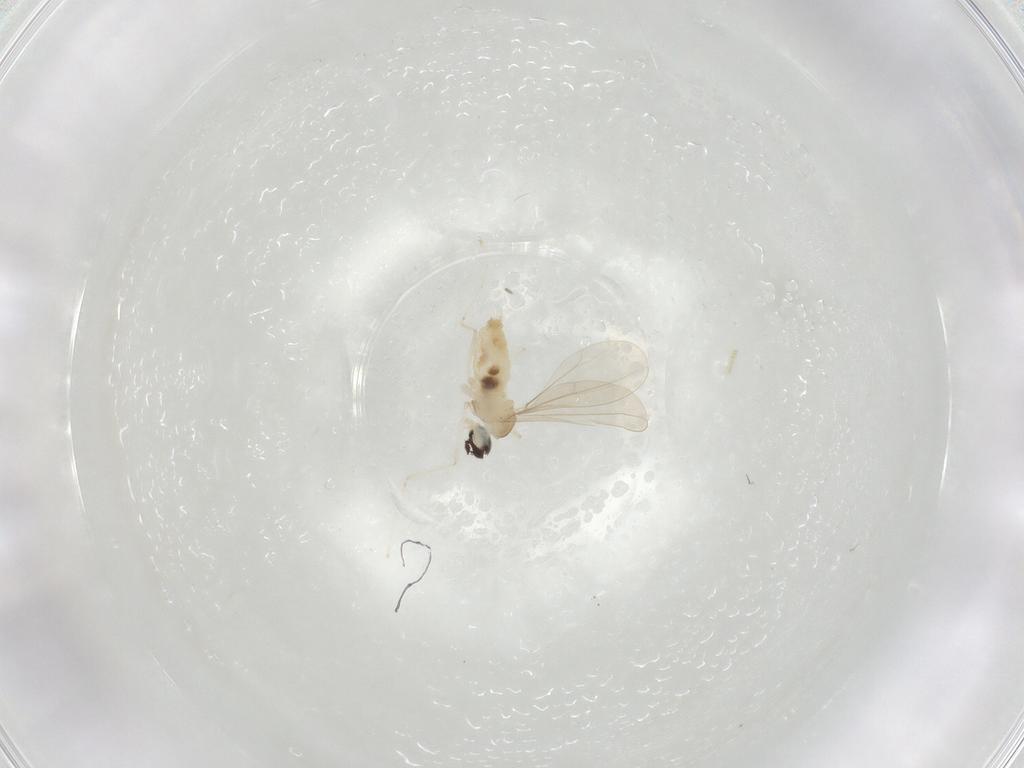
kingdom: Animalia
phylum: Arthropoda
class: Insecta
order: Diptera
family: Cecidomyiidae
